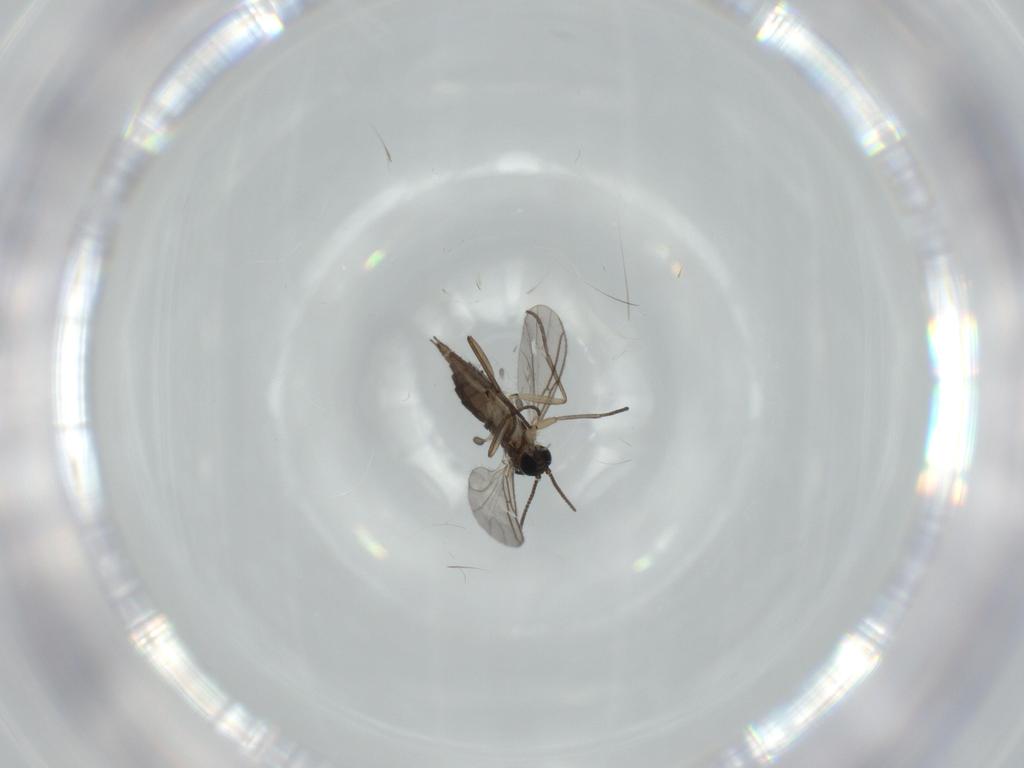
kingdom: Animalia
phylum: Arthropoda
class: Insecta
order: Diptera
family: Sciaridae
